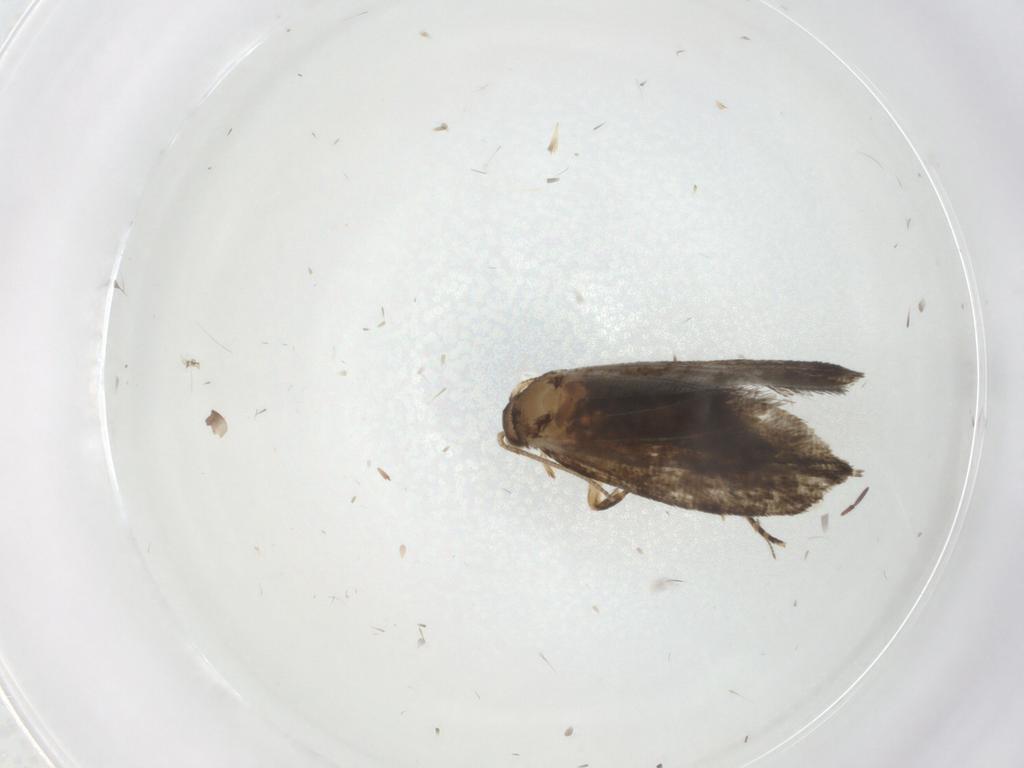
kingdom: Animalia
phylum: Arthropoda
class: Insecta
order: Lepidoptera
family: Crambidae
